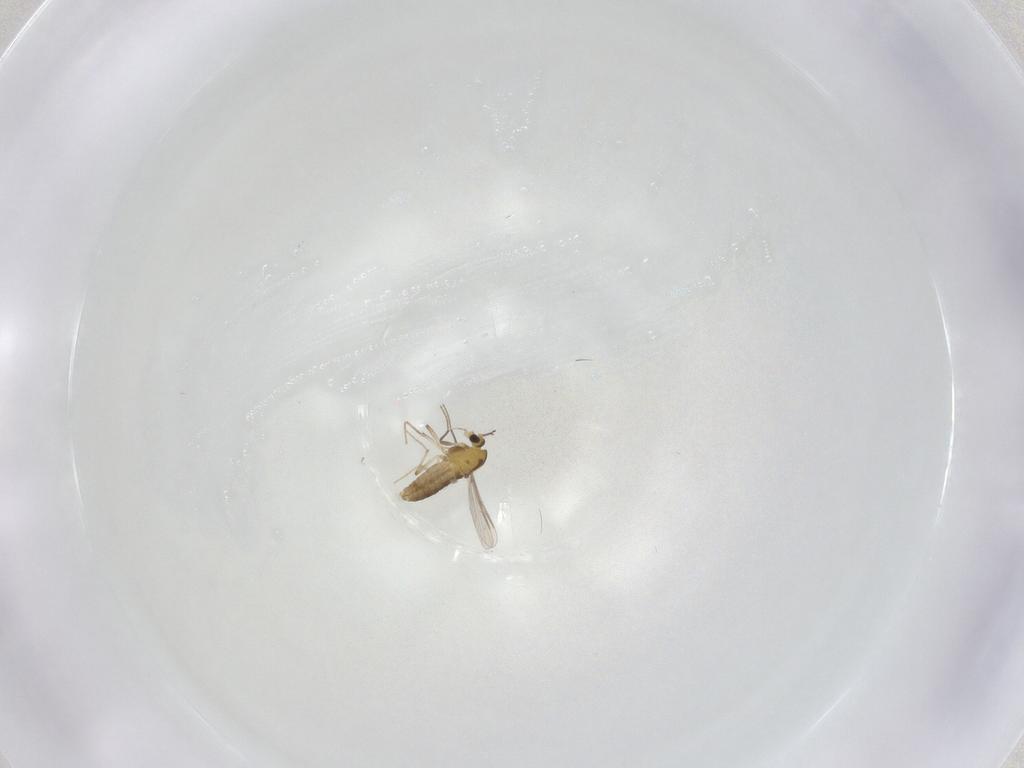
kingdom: Animalia
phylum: Arthropoda
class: Insecta
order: Diptera
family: Chironomidae
